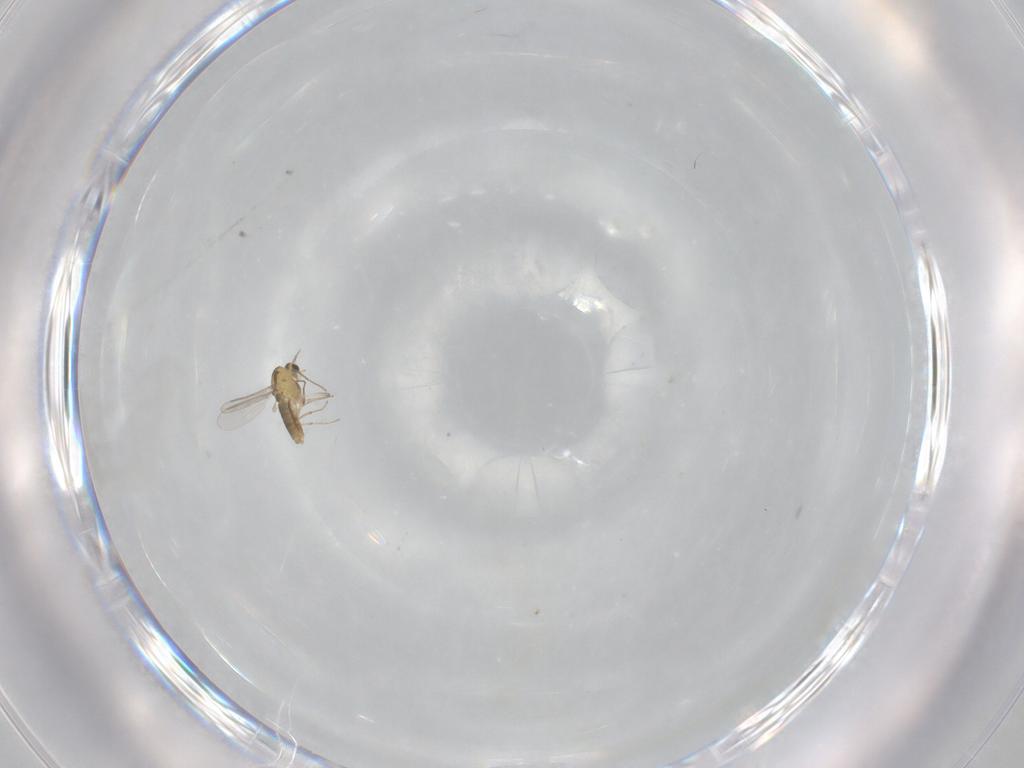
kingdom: Animalia
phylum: Arthropoda
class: Insecta
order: Diptera
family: Chironomidae
